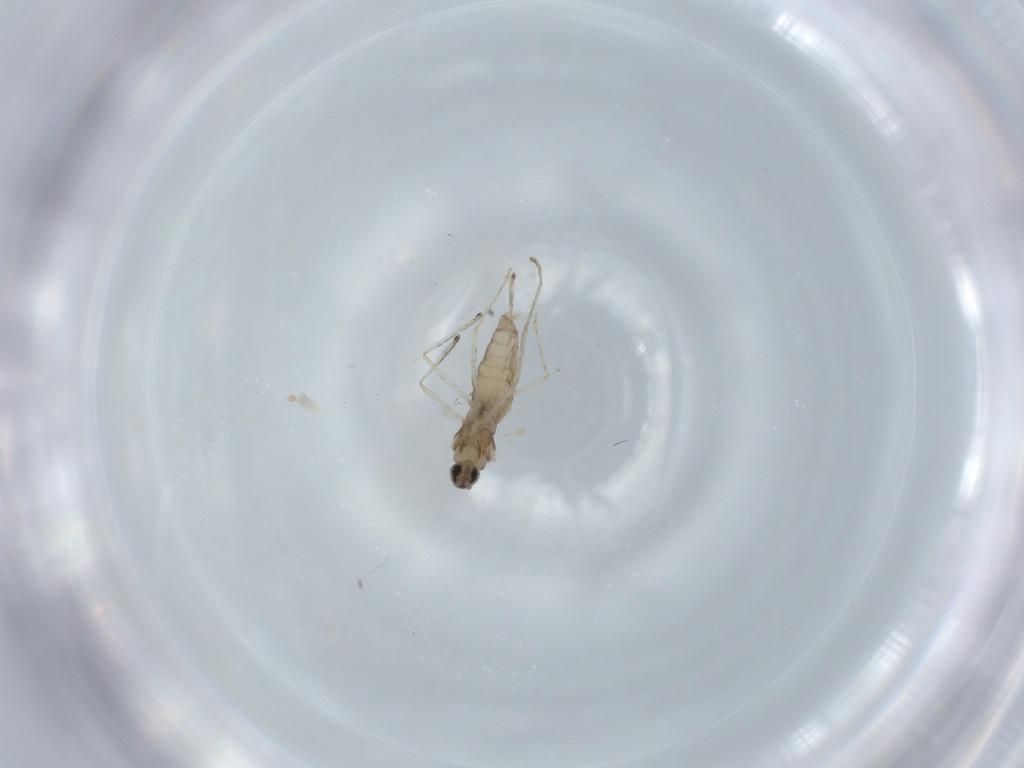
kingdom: Animalia
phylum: Arthropoda
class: Insecta
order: Diptera
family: Cecidomyiidae
